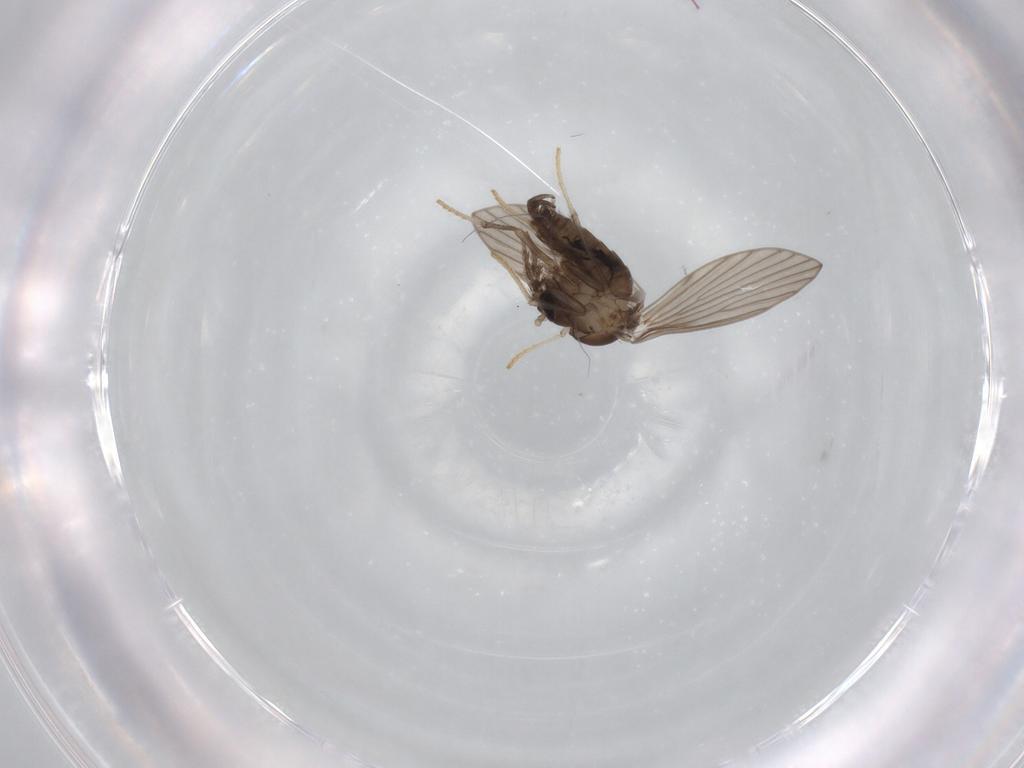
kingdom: Animalia
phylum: Arthropoda
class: Insecta
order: Diptera
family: Psychodidae
